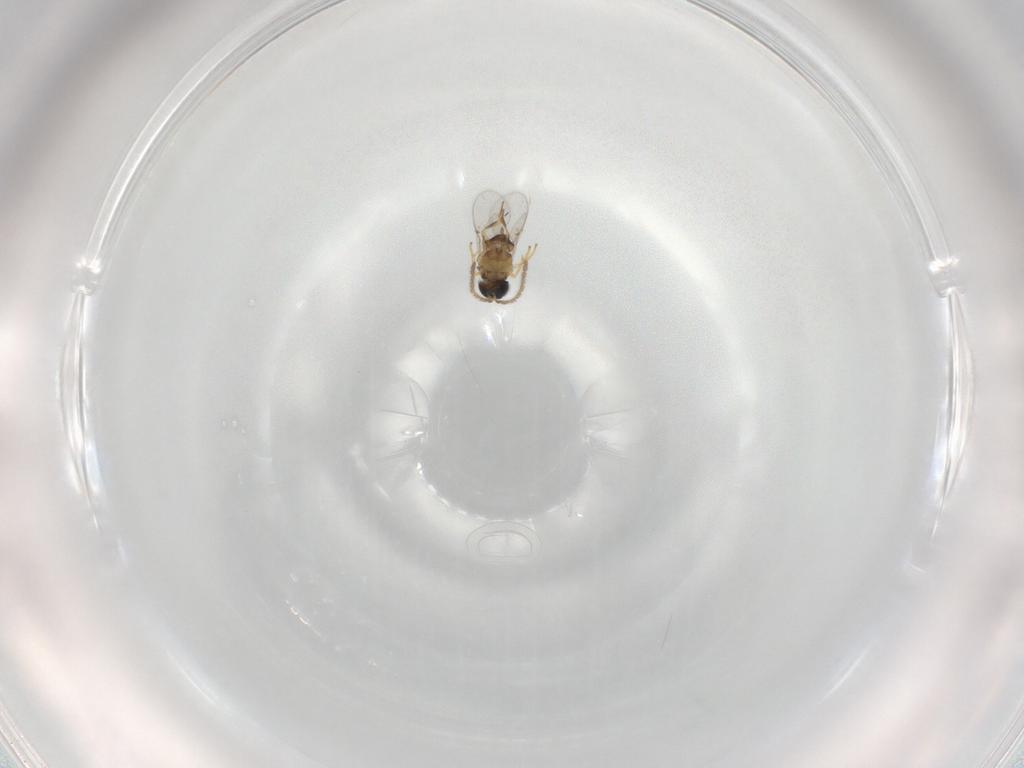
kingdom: Animalia
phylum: Arthropoda
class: Insecta
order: Hymenoptera
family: Encyrtidae
